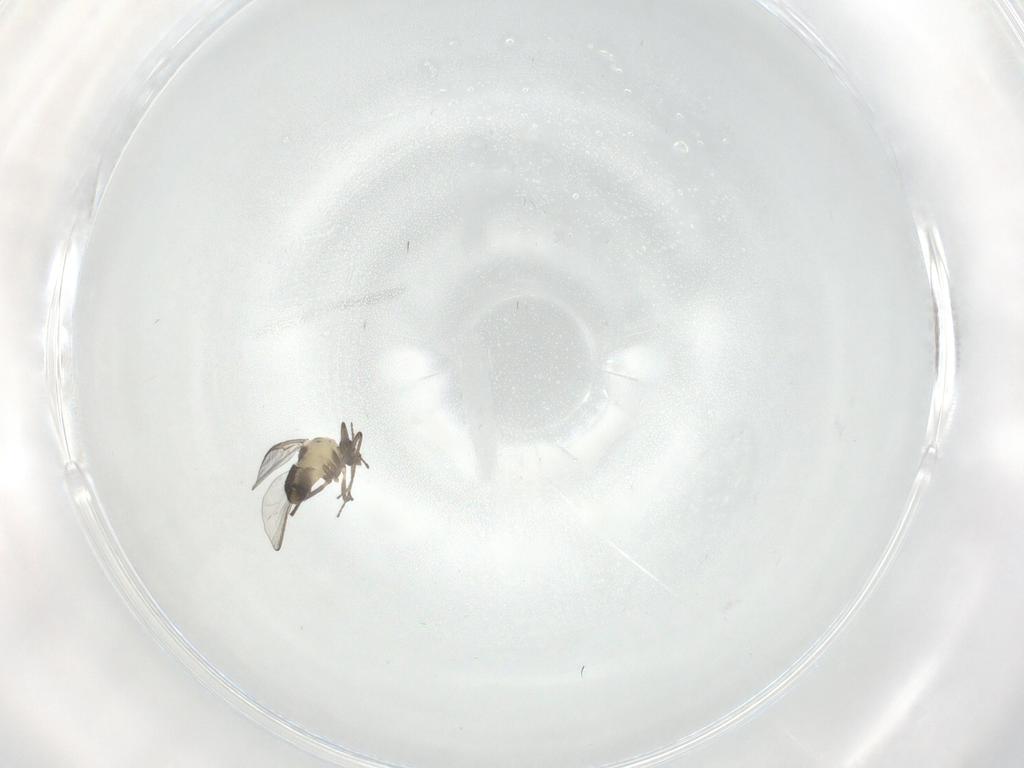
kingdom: Animalia
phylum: Arthropoda
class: Insecta
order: Diptera
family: Chironomidae
